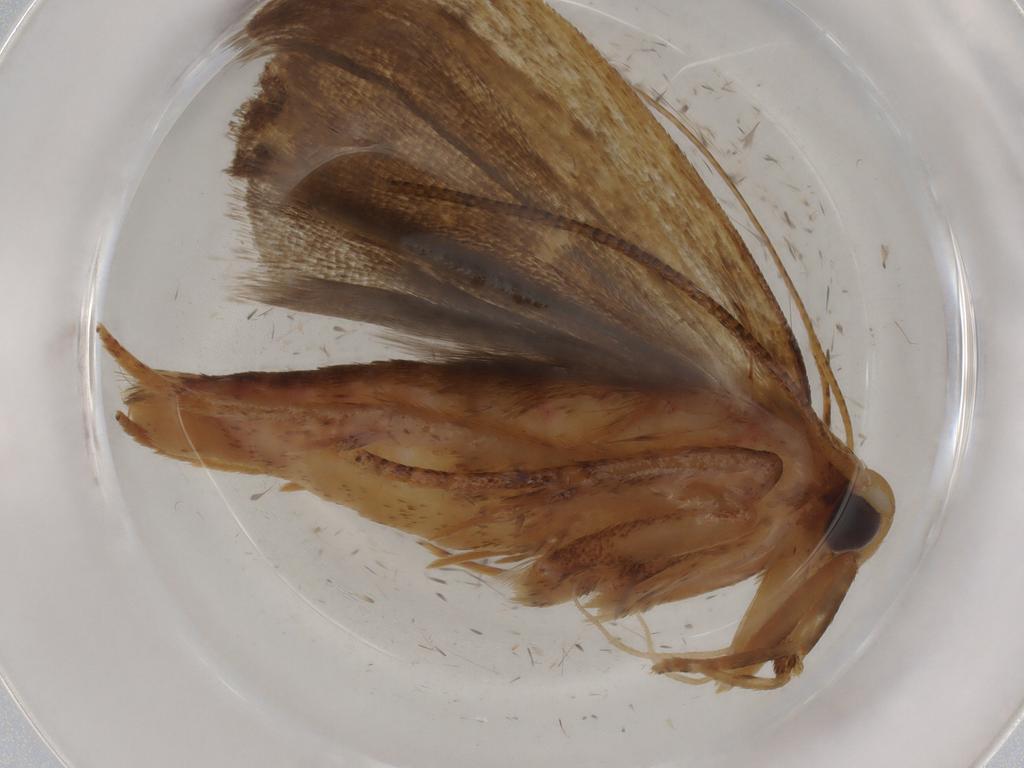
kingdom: Animalia
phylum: Arthropoda
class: Insecta
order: Lepidoptera
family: Autostichidae
